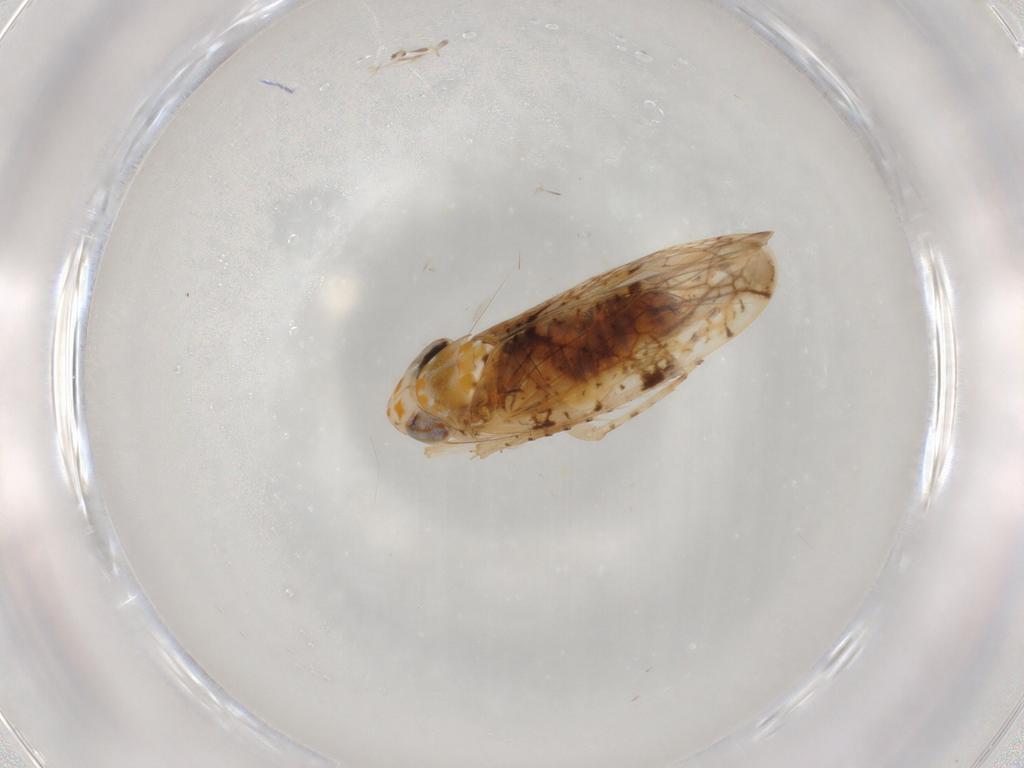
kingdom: Animalia
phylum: Arthropoda
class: Insecta
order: Hemiptera
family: Cicadellidae
